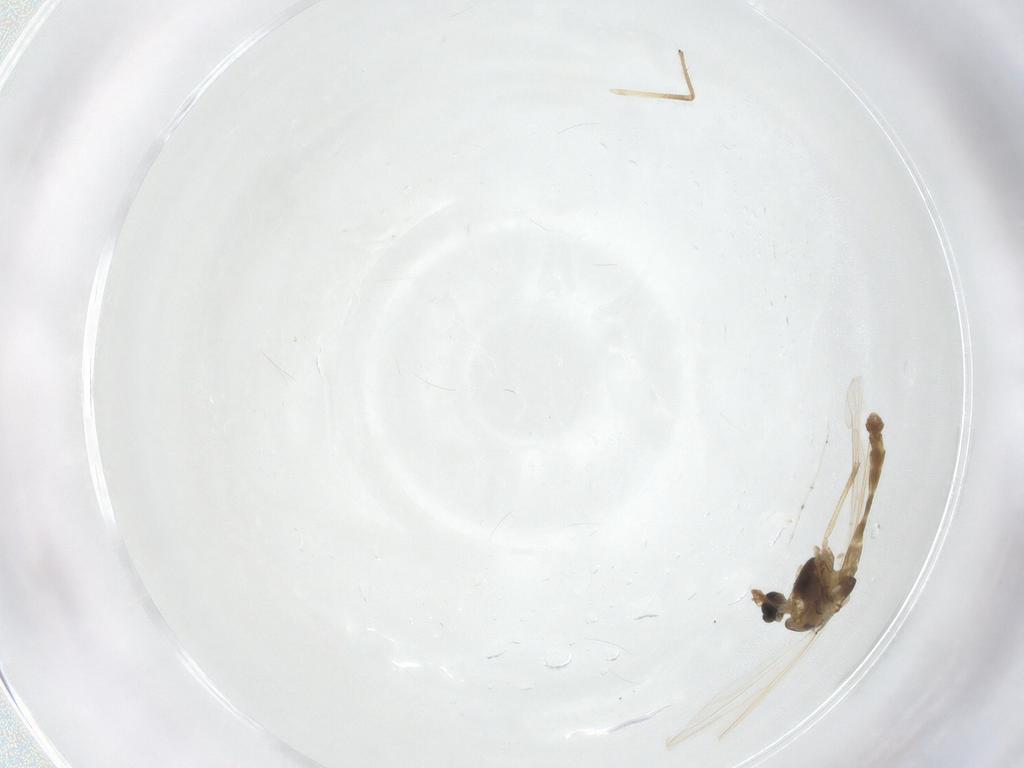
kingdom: Animalia
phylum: Arthropoda
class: Insecta
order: Diptera
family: Chironomidae
